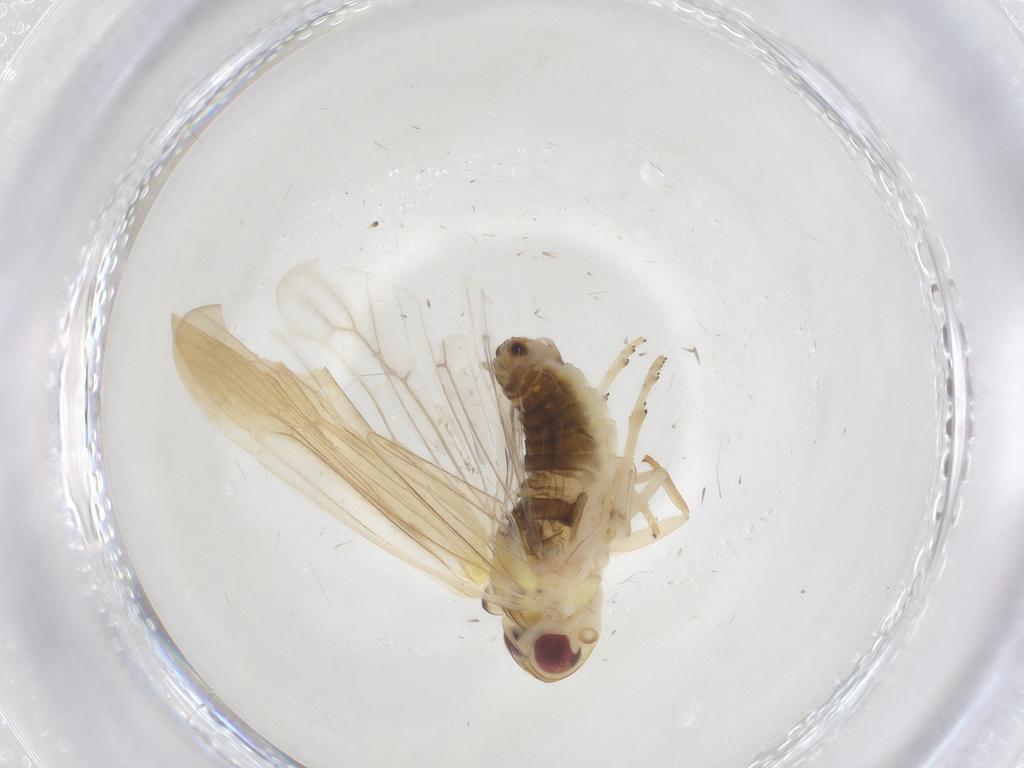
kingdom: Animalia
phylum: Arthropoda
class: Insecta
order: Hemiptera
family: Achilidae
